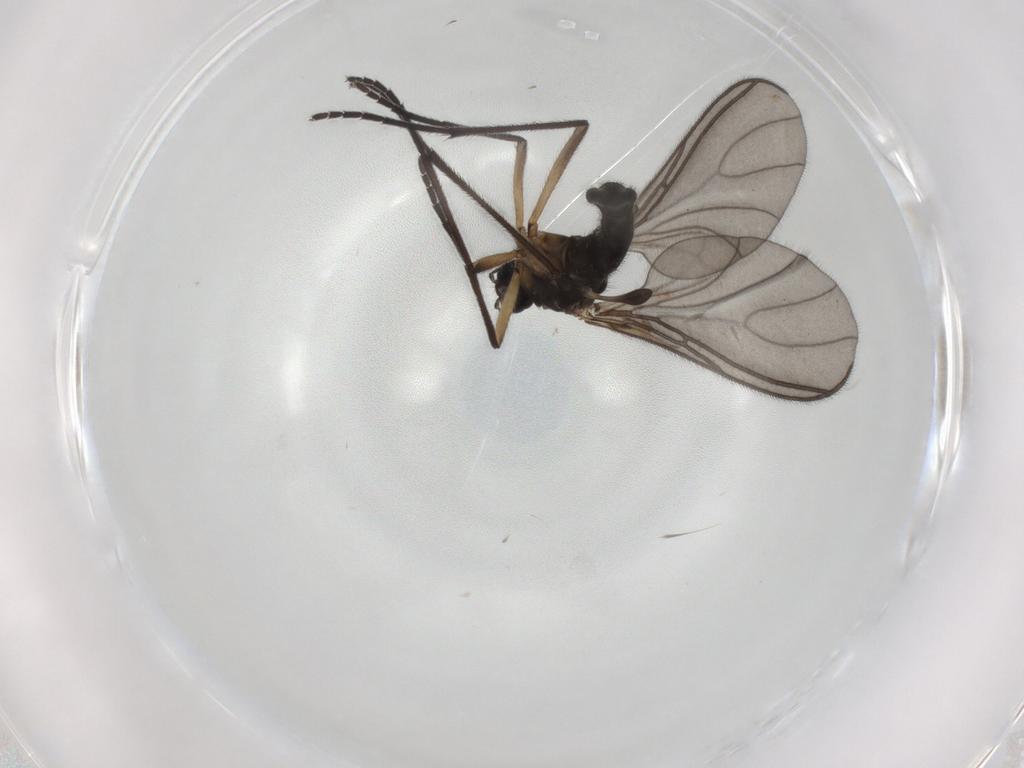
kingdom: Animalia
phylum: Arthropoda
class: Insecta
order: Diptera
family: Sciaridae
